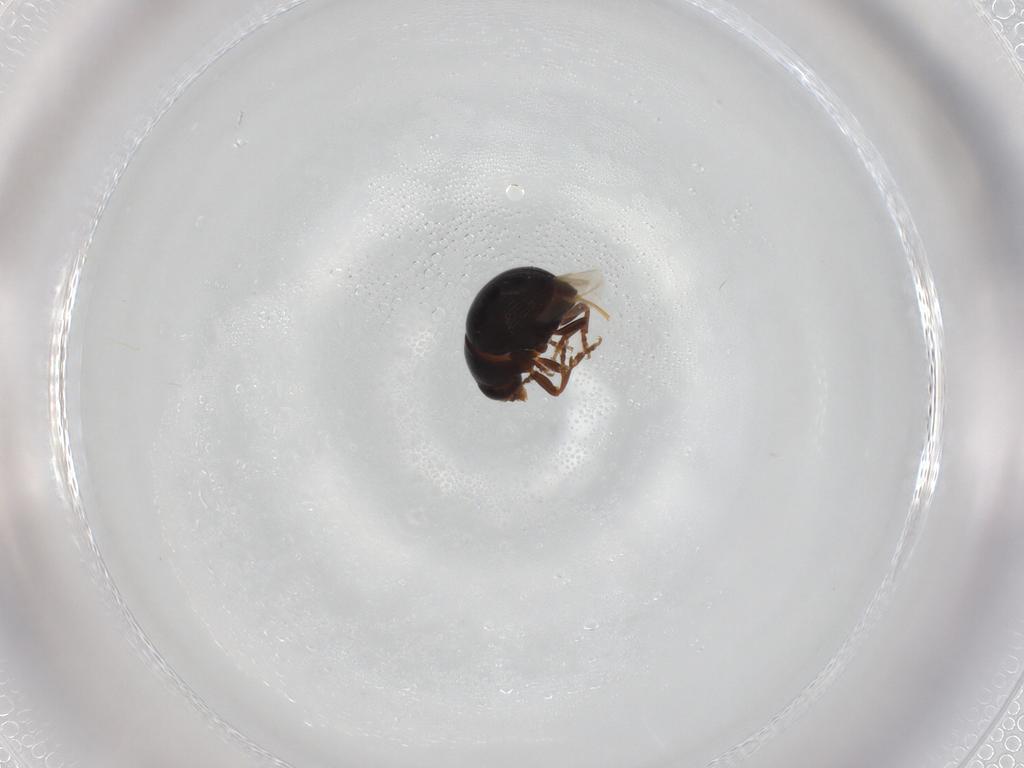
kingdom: Animalia
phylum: Arthropoda
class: Insecta
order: Coleoptera
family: Anthribidae
